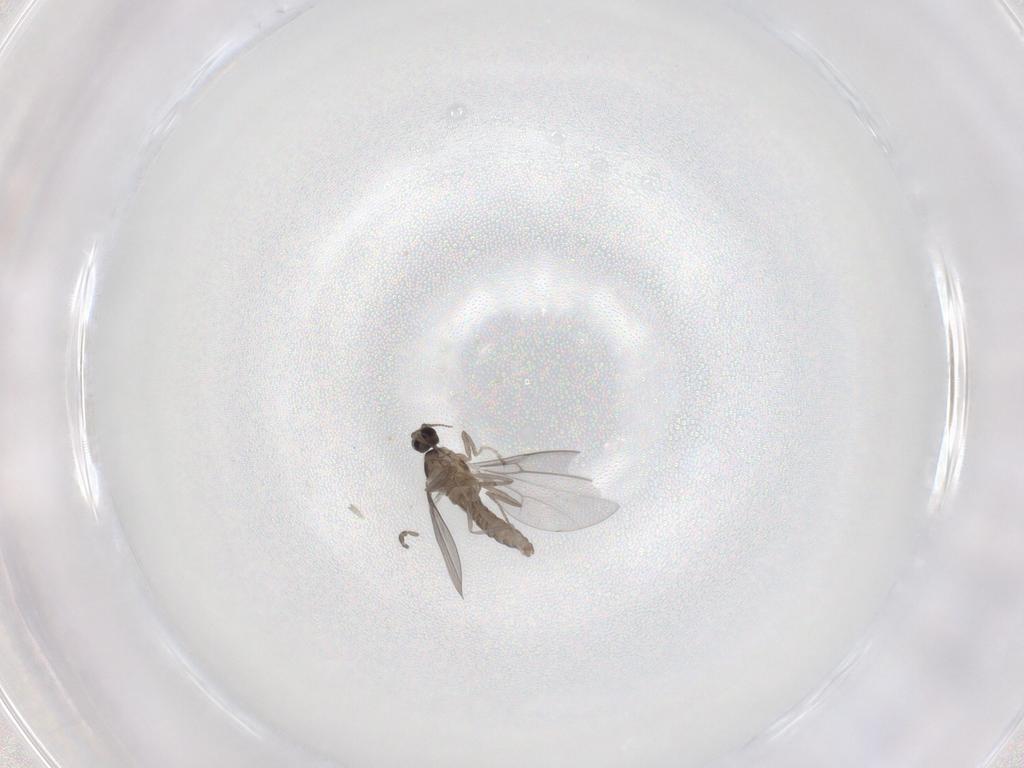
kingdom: Animalia
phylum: Arthropoda
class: Insecta
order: Diptera
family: Cecidomyiidae
